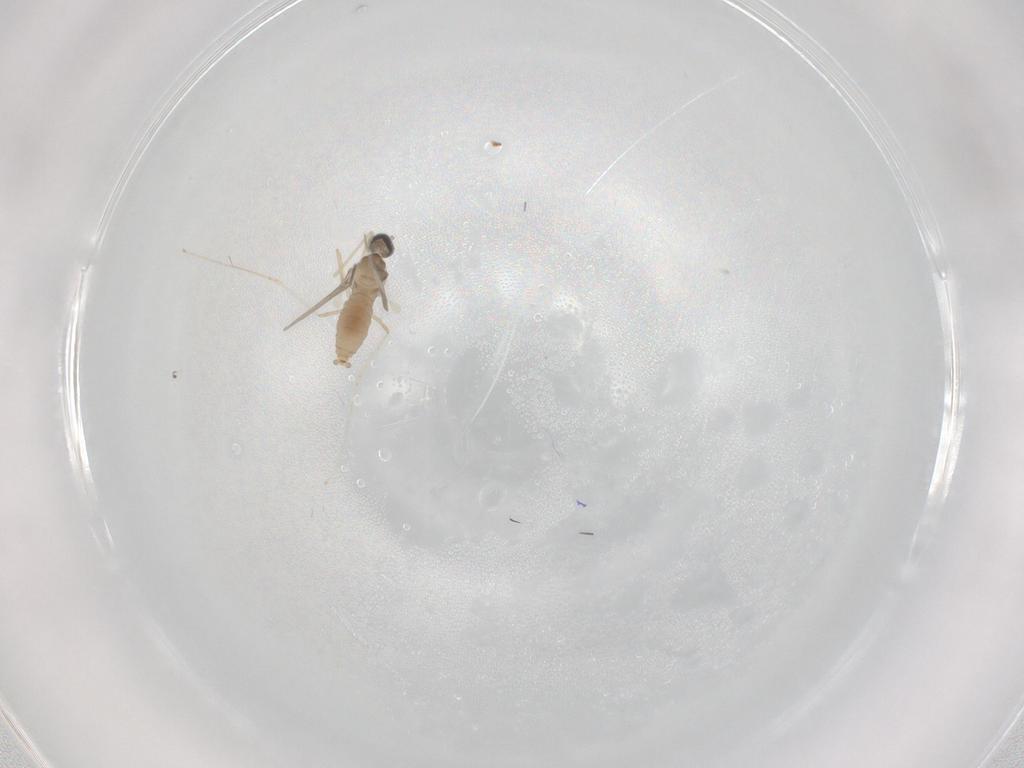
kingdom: Animalia
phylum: Arthropoda
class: Insecta
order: Diptera
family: Cecidomyiidae
